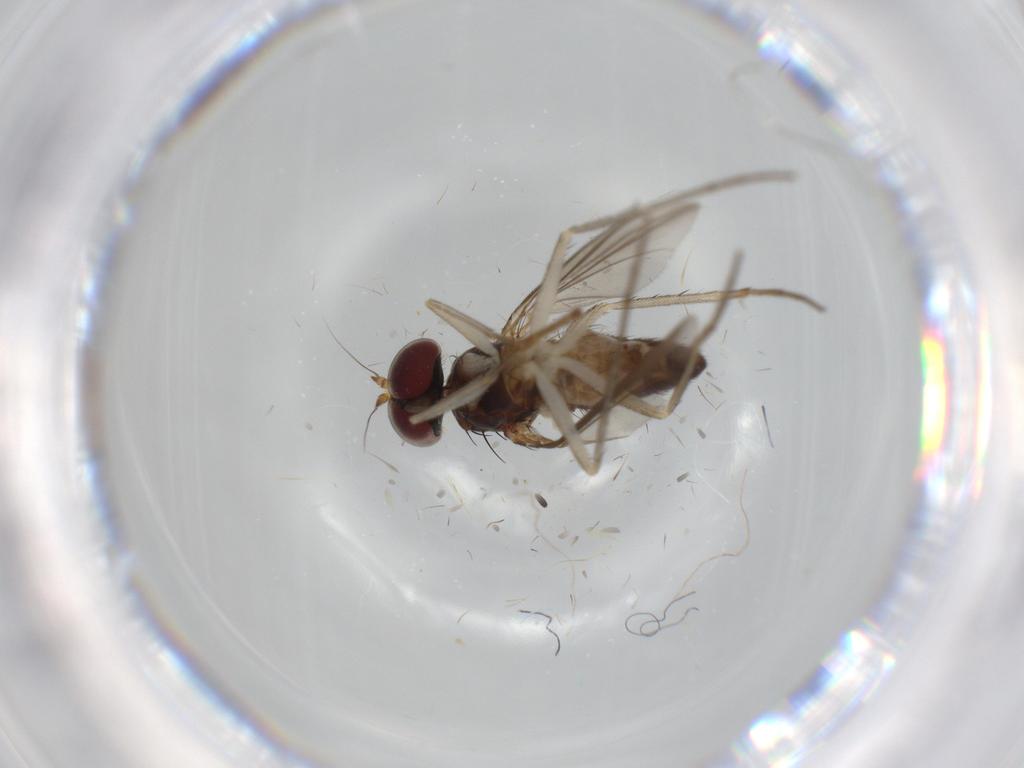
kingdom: Animalia
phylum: Arthropoda
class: Insecta
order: Diptera
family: Dolichopodidae
